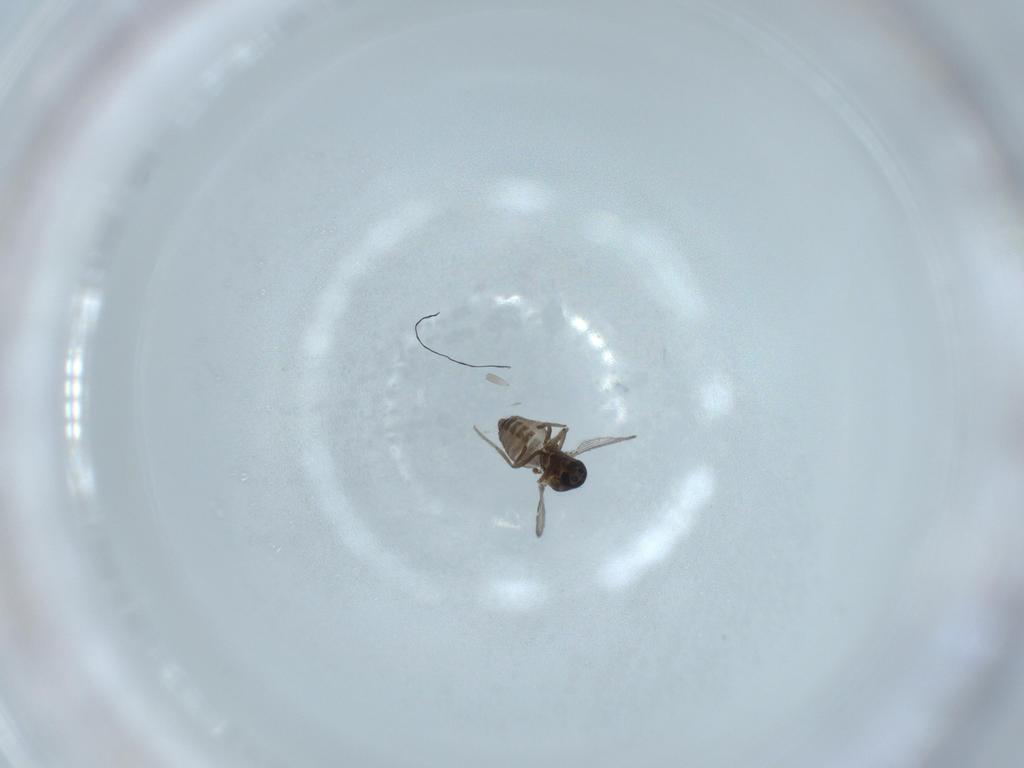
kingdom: Animalia
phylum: Arthropoda
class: Insecta
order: Diptera
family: Ceratopogonidae
